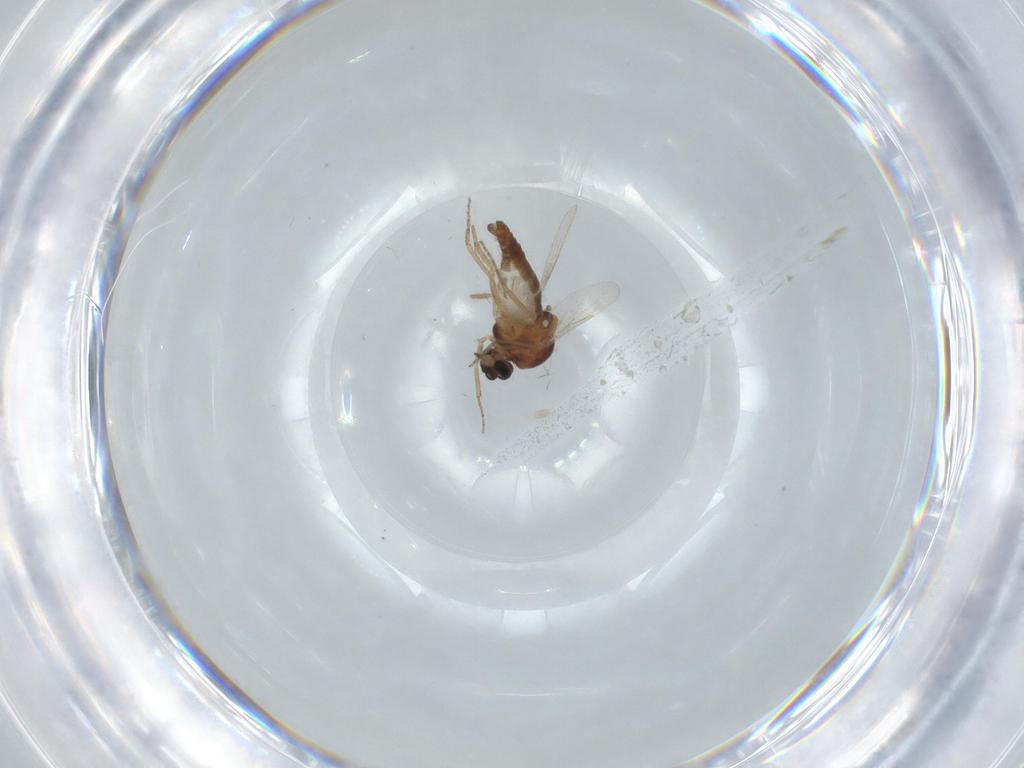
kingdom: Animalia
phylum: Arthropoda
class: Insecta
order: Diptera
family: Ceratopogonidae
